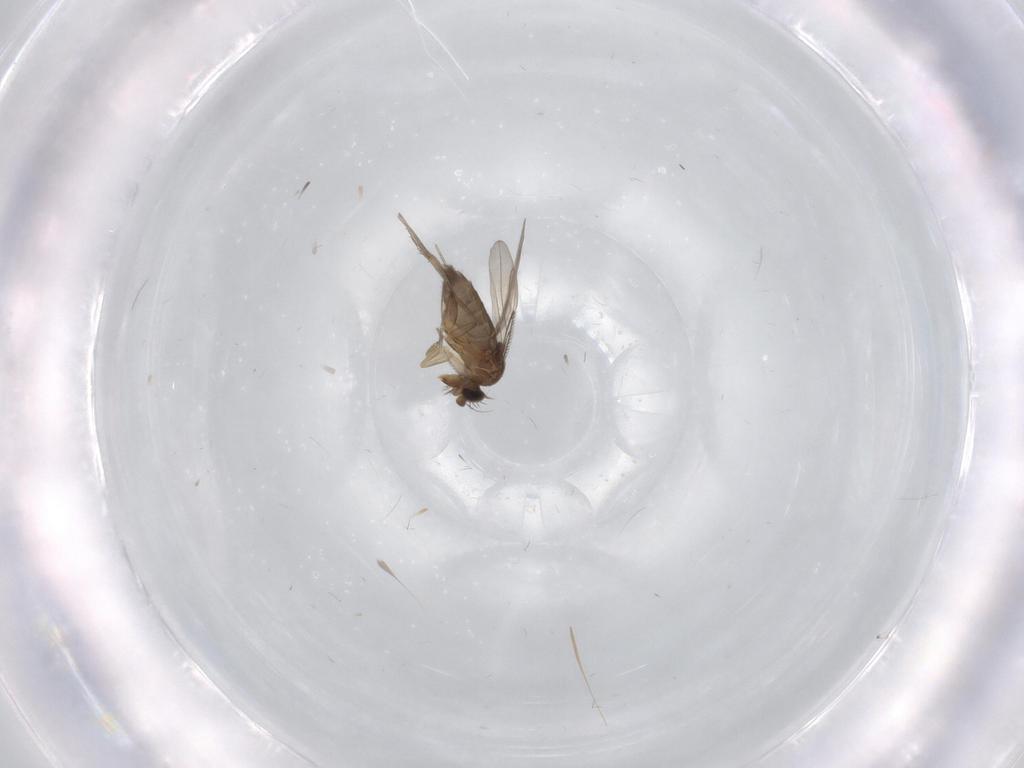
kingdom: Animalia
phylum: Arthropoda
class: Insecta
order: Diptera
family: Phoridae
